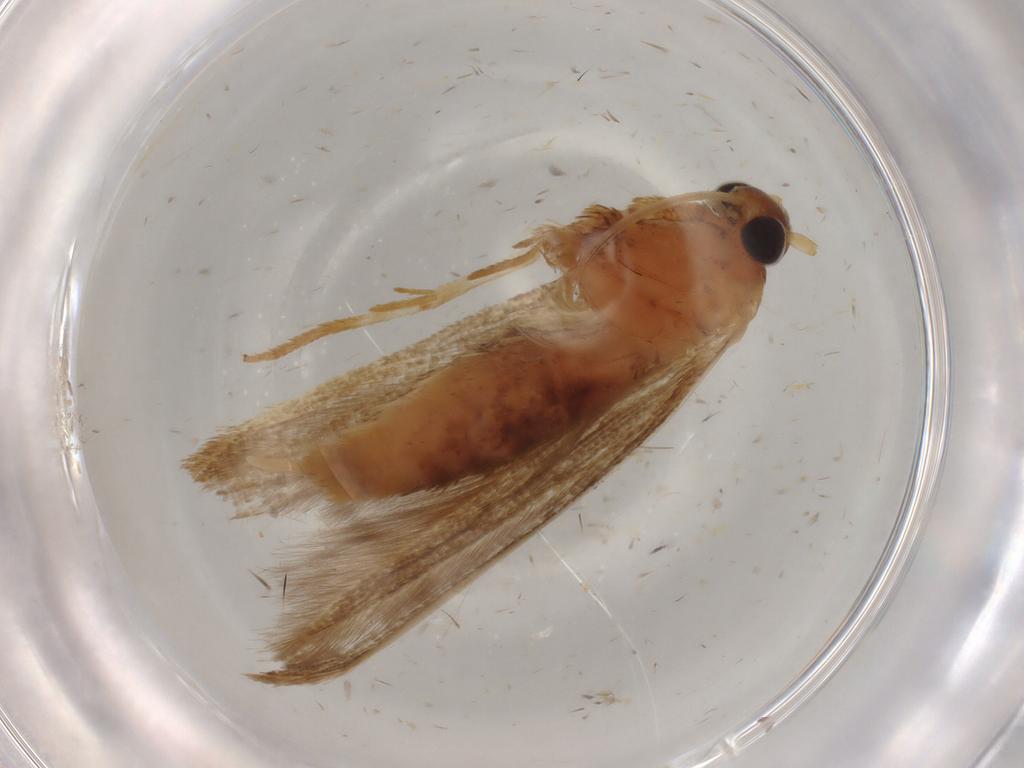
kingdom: Animalia
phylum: Arthropoda
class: Insecta
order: Lepidoptera
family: Blastobasidae
